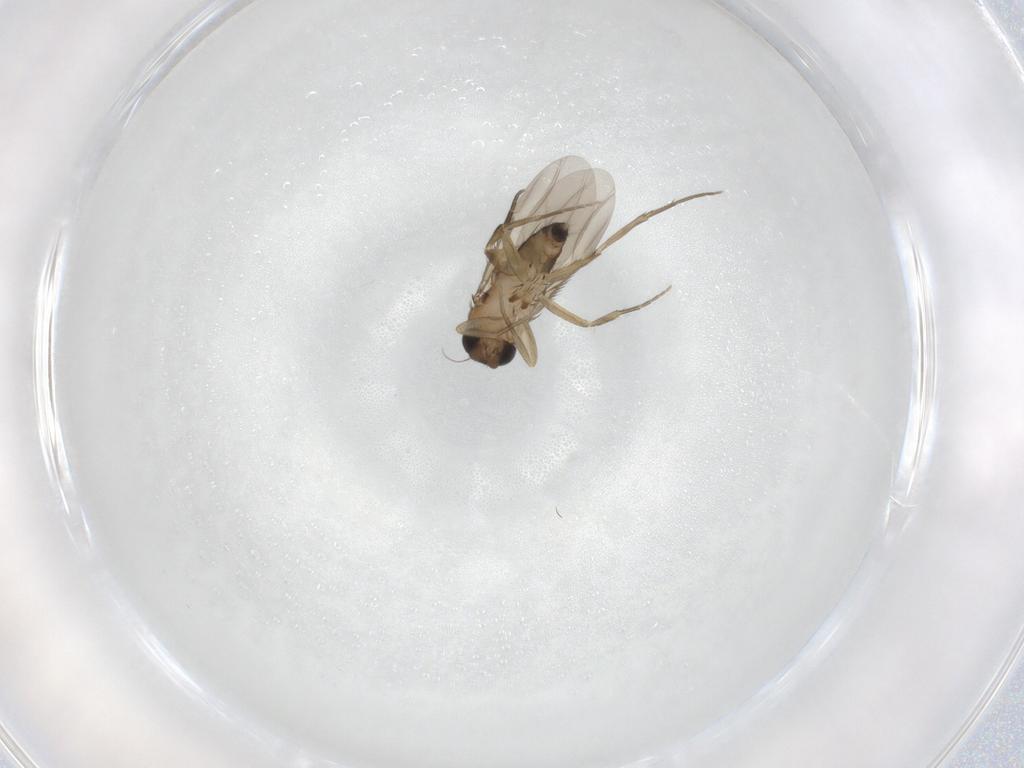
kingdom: Animalia
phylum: Arthropoda
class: Insecta
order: Diptera
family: Phoridae
